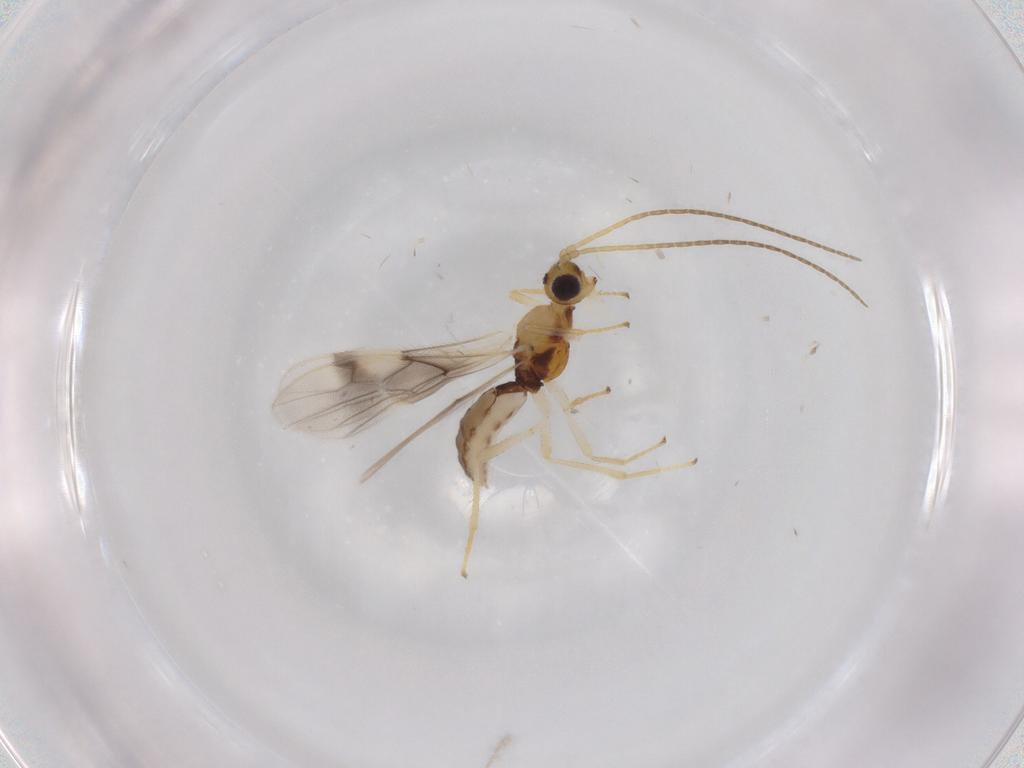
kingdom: Animalia
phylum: Arthropoda
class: Insecta
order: Hymenoptera
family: Braconidae
